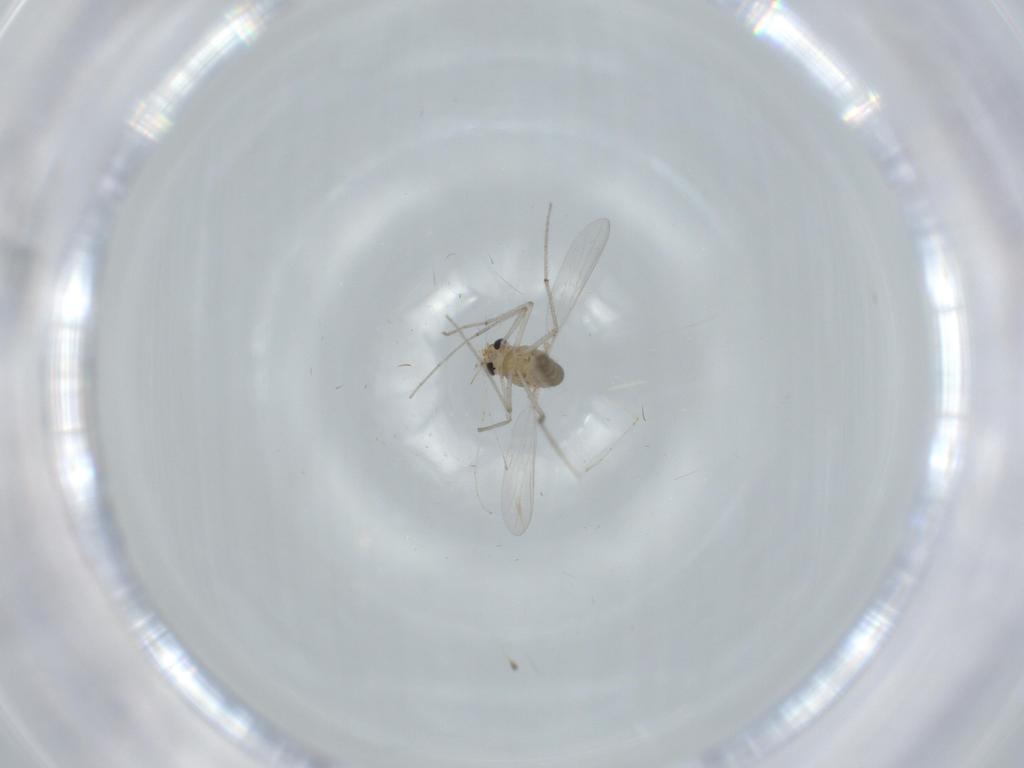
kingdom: Animalia
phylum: Arthropoda
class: Insecta
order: Diptera
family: Chironomidae
